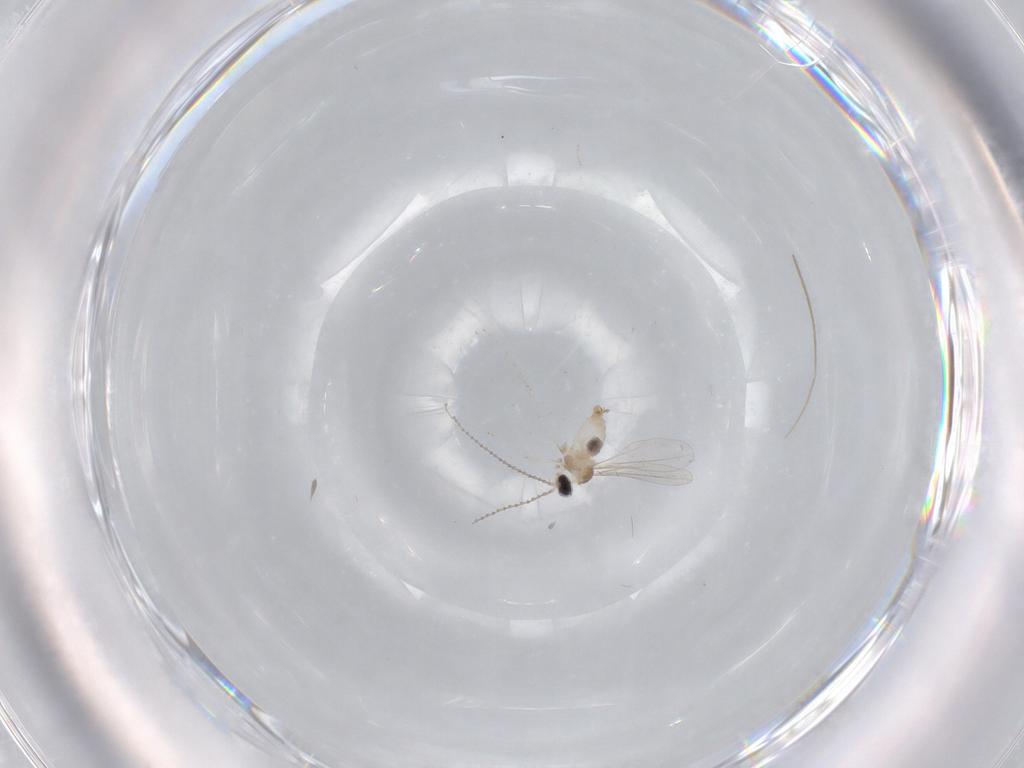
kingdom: Animalia
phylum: Arthropoda
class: Insecta
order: Diptera
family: Cecidomyiidae
